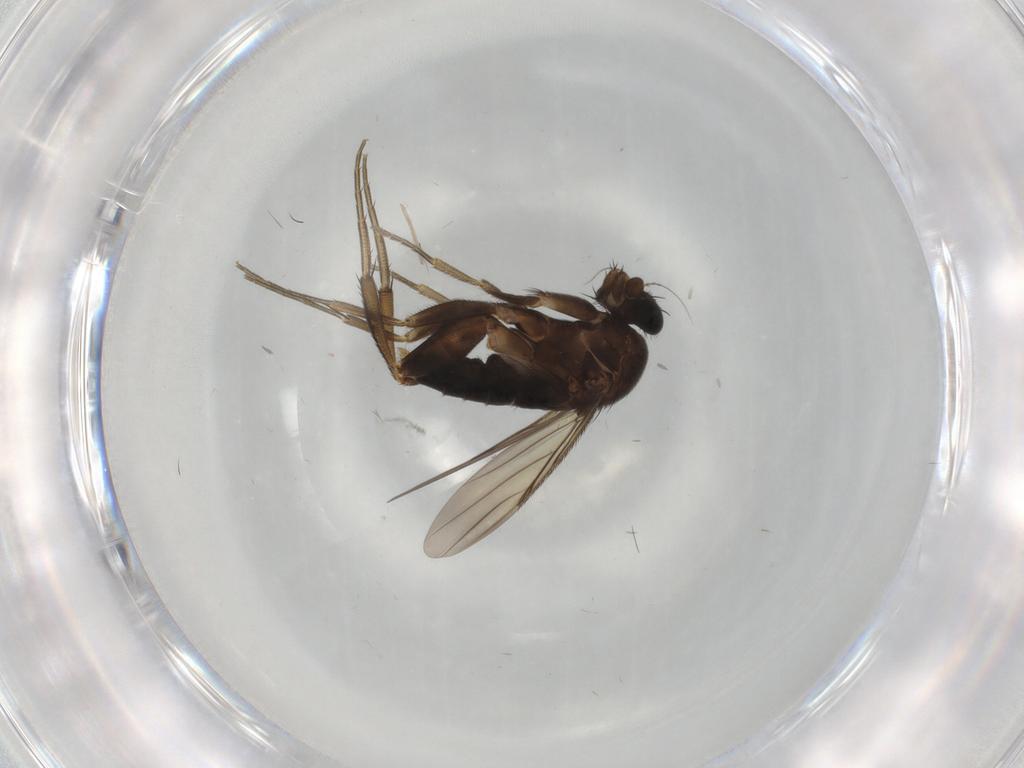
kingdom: Animalia
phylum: Arthropoda
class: Insecta
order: Diptera
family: Phoridae
